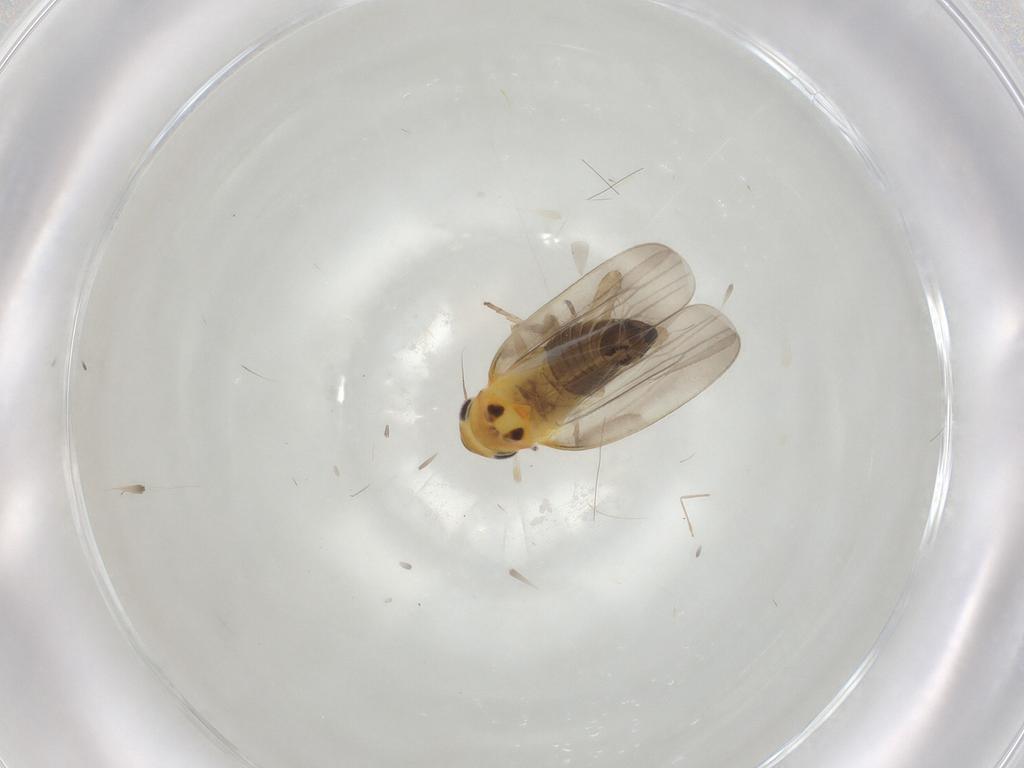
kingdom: Animalia
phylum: Arthropoda
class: Insecta
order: Hemiptera
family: Cicadellidae
